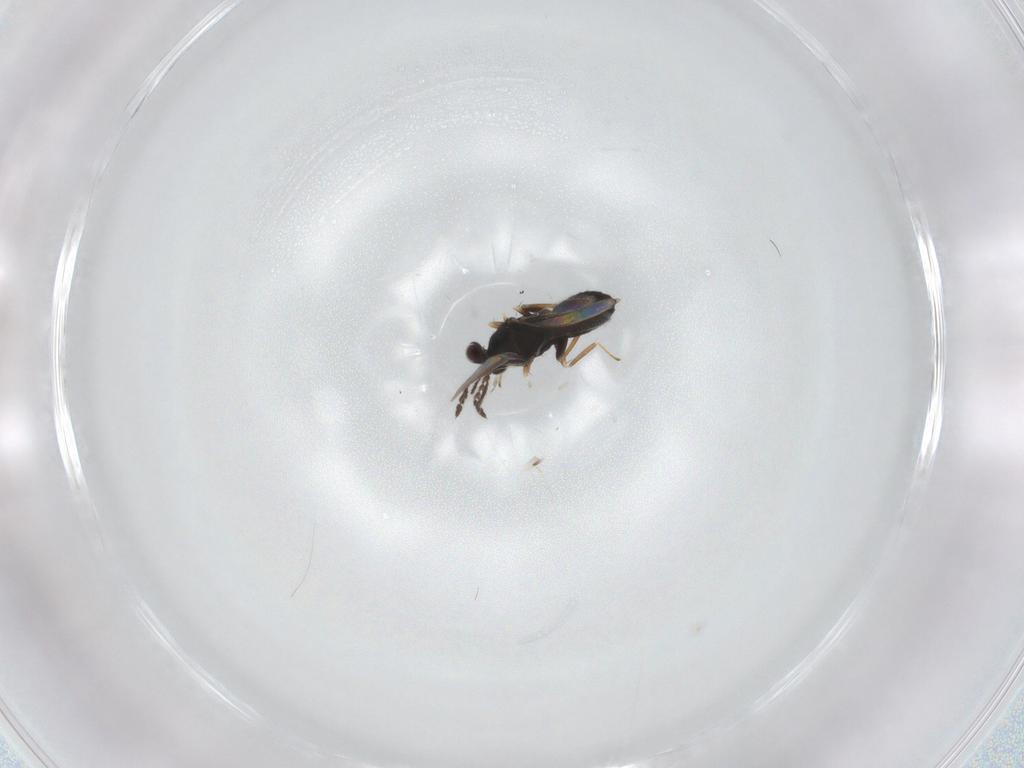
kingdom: Animalia
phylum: Arthropoda
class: Insecta
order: Hymenoptera
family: Eulophidae
